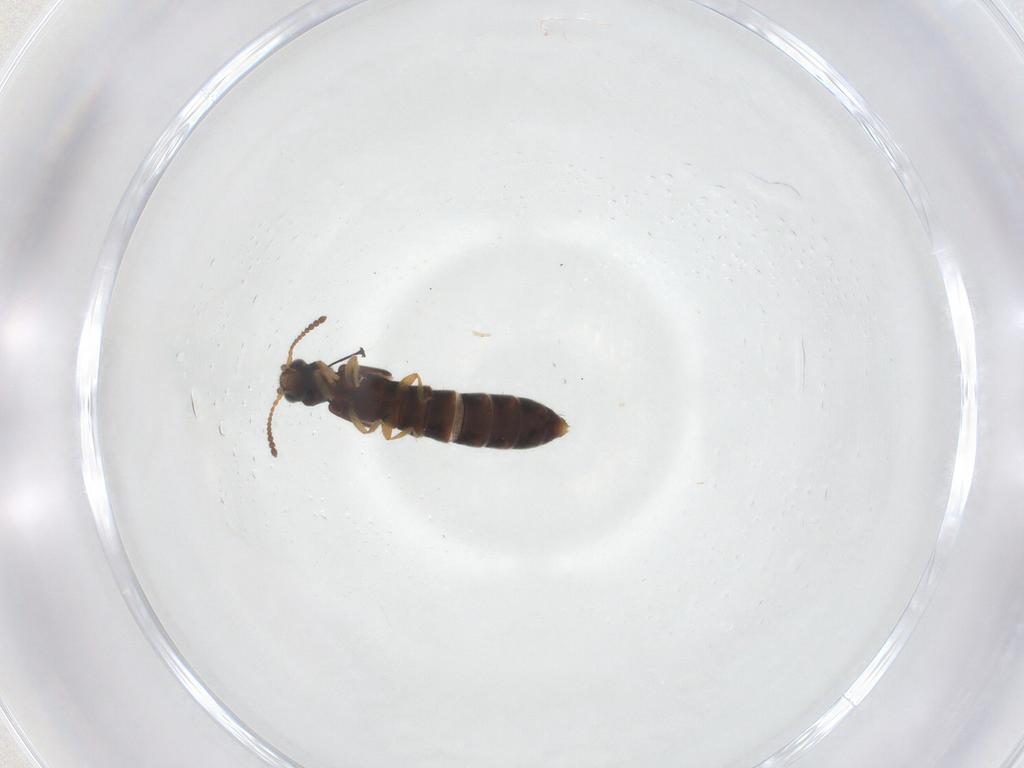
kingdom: Animalia
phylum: Arthropoda
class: Insecta
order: Coleoptera
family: Staphylinidae
